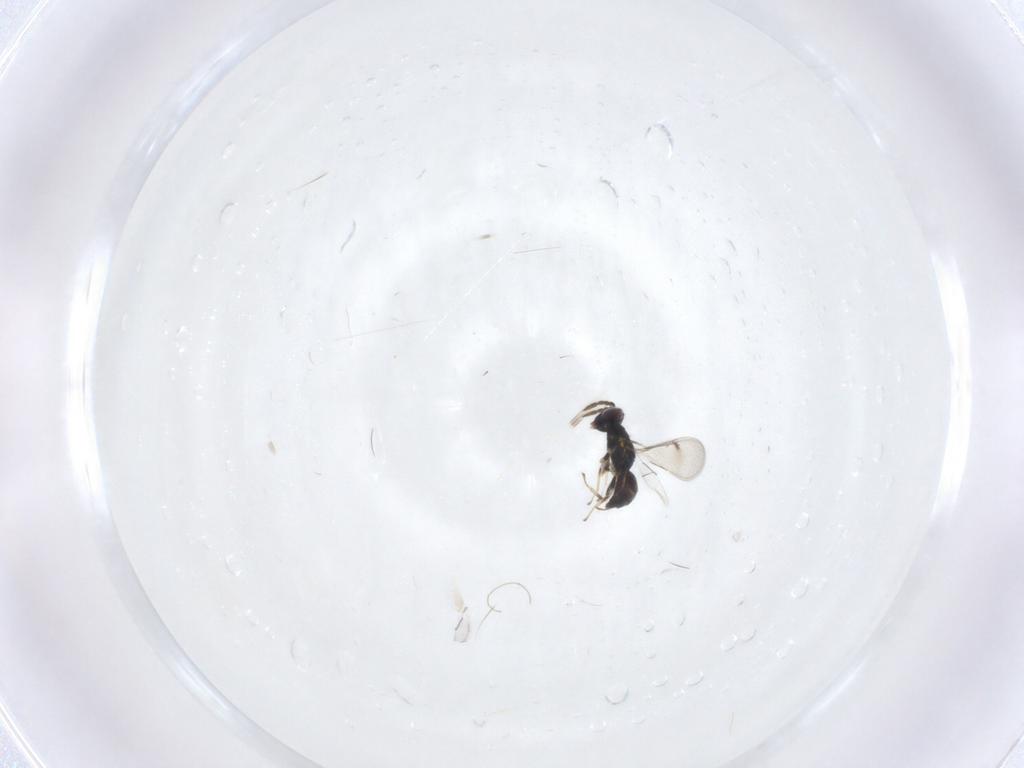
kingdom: Animalia
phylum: Arthropoda
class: Insecta
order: Hymenoptera
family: Eulophidae
